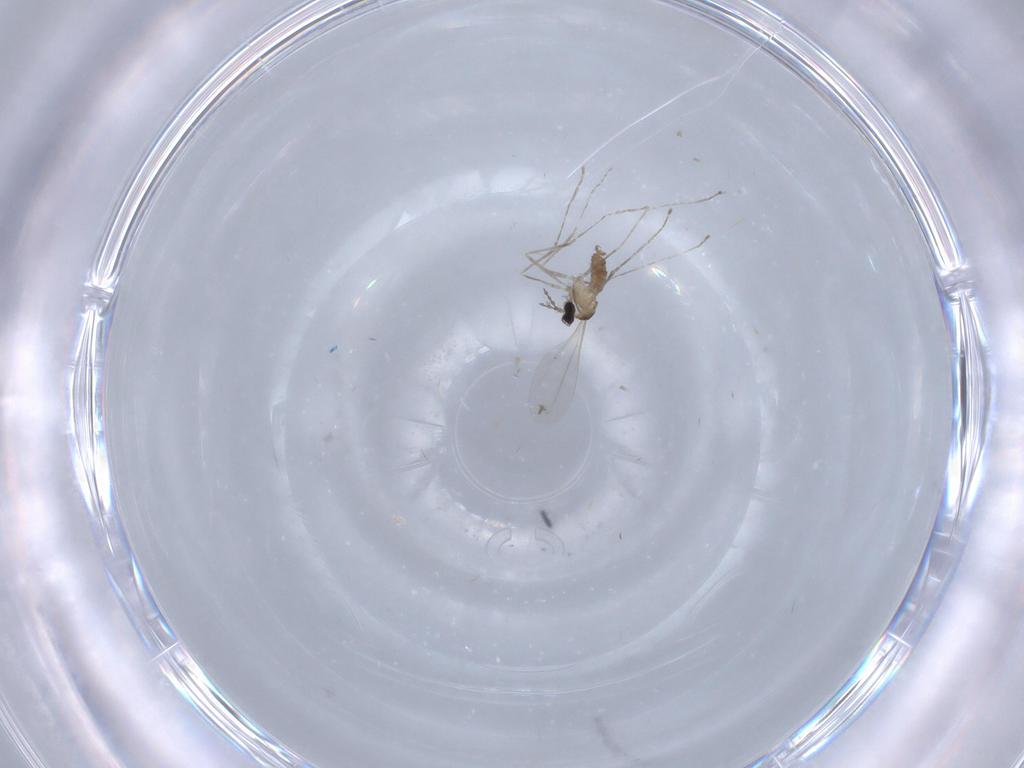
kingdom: Animalia
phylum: Arthropoda
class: Insecta
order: Diptera
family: Cecidomyiidae
